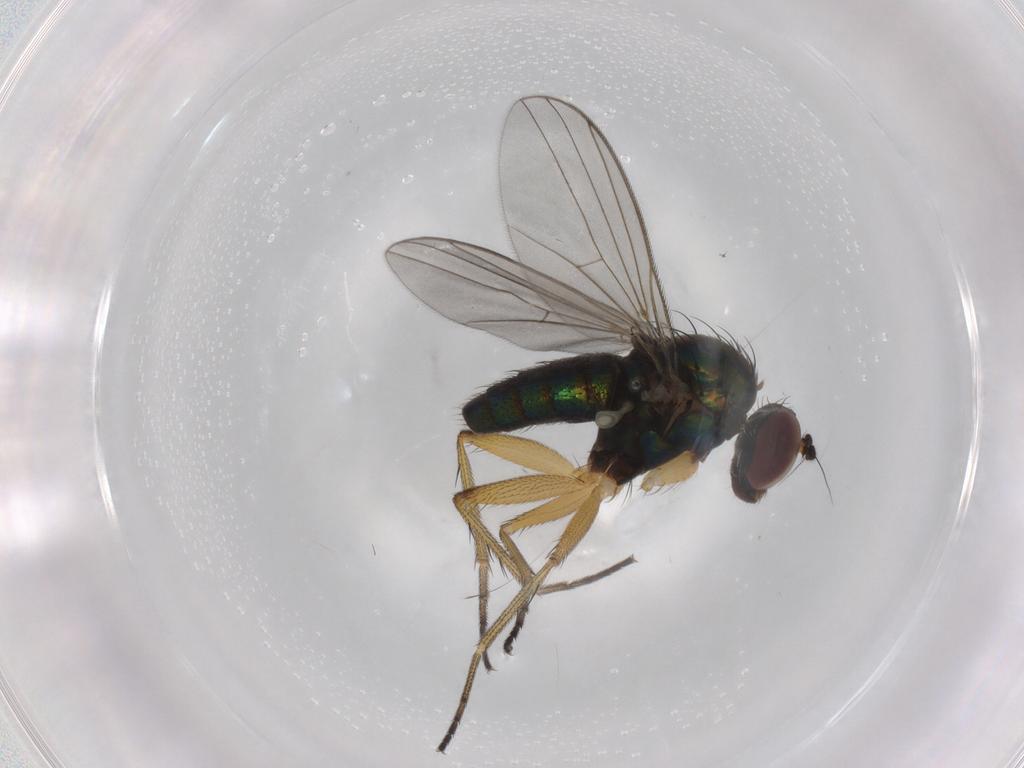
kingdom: Animalia
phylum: Arthropoda
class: Insecta
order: Diptera
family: Dolichopodidae
